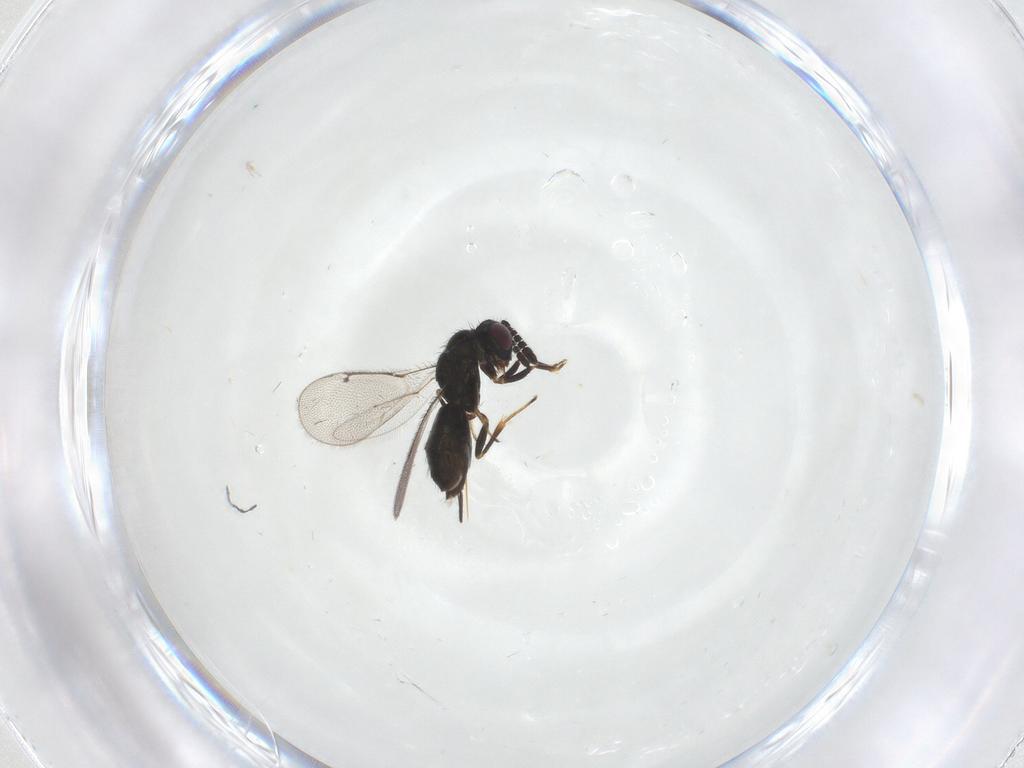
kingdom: Animalia
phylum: Arthropoda
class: Insecta
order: Hymenoptera
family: Pirenidae
